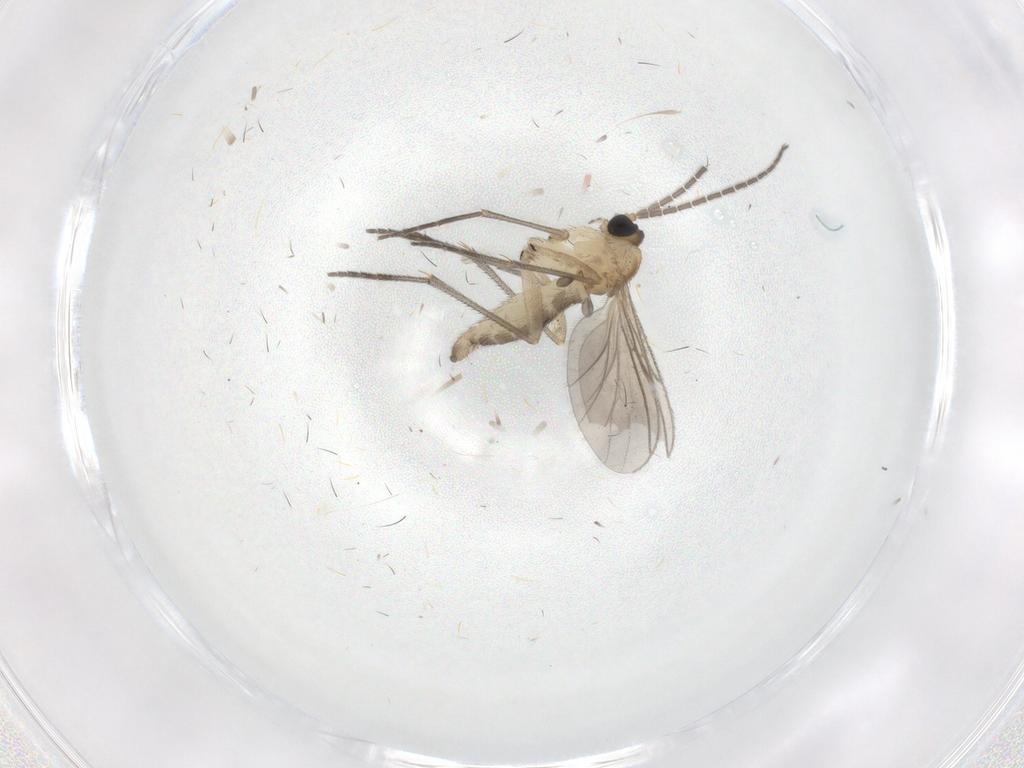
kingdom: Animalia
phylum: Arthropoda
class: Insecta
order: Diptera
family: Sciaridae
